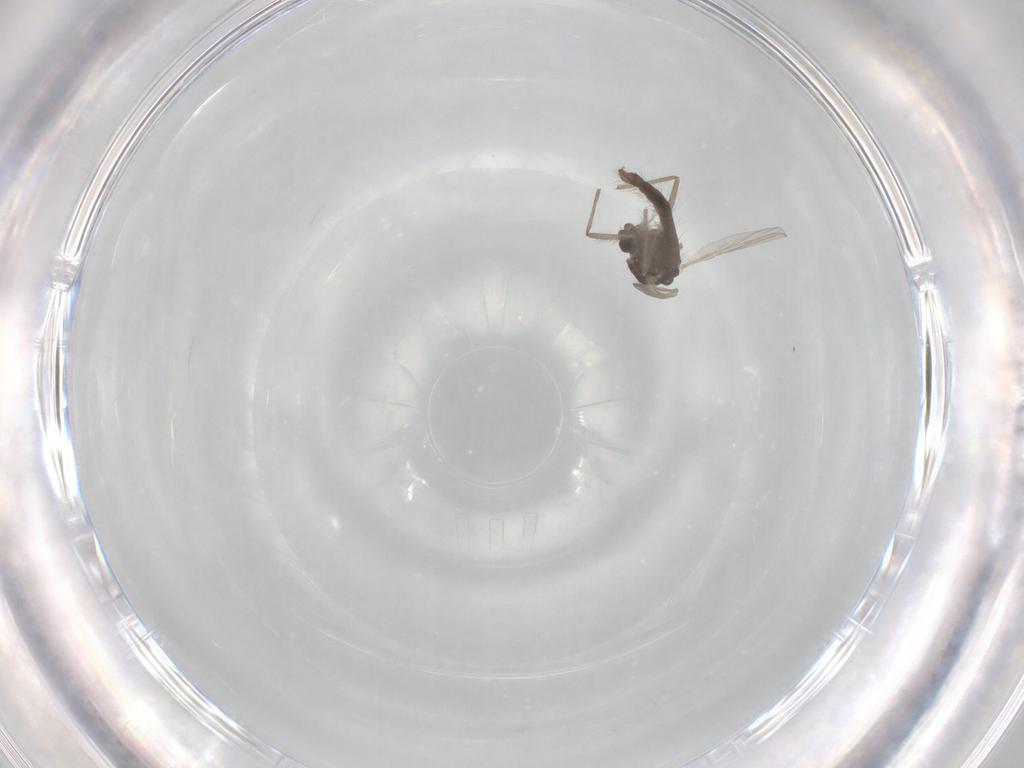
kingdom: Animalia
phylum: Arthropoda
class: Insecta
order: Diptera
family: Chironomidae
